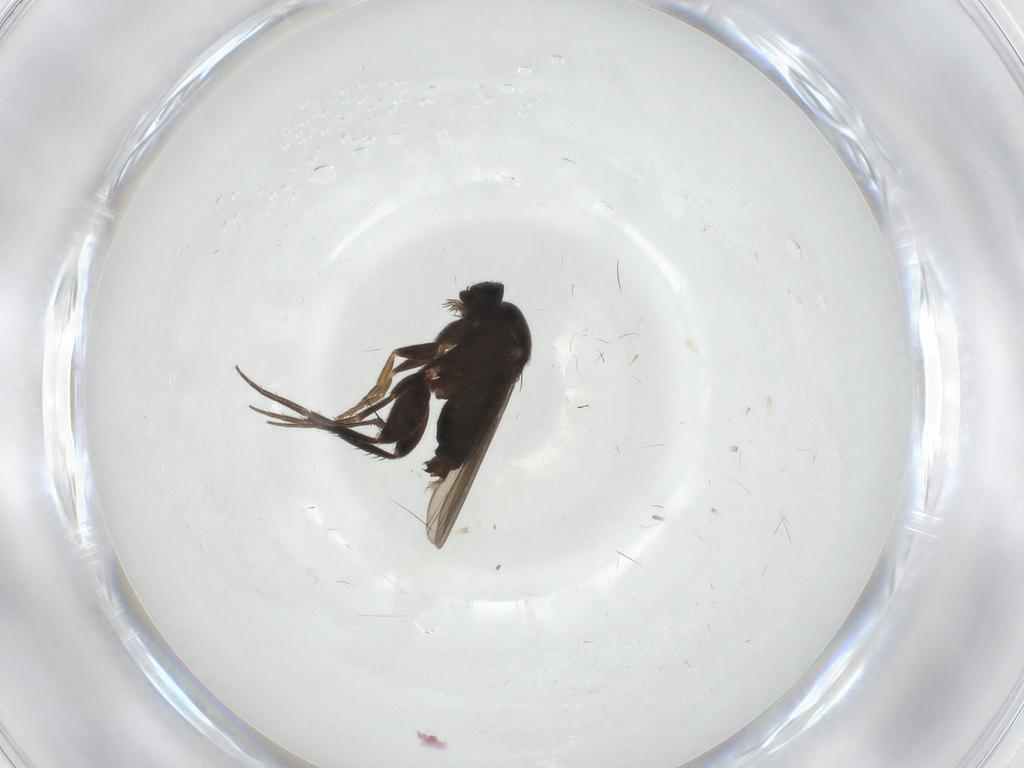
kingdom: Animalia
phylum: Arthropoda
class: Insecta
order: Diptera
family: Phoridae
